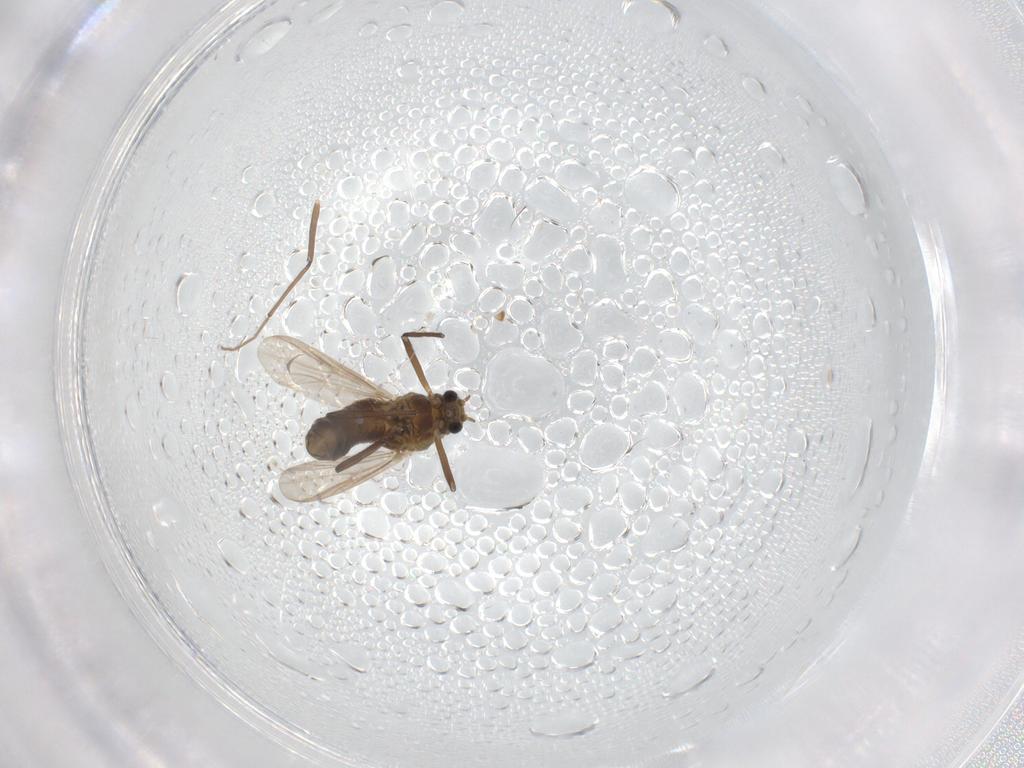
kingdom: Animalia
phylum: Arthropoda
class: Insecta
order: Diptera
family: Chironomidae
